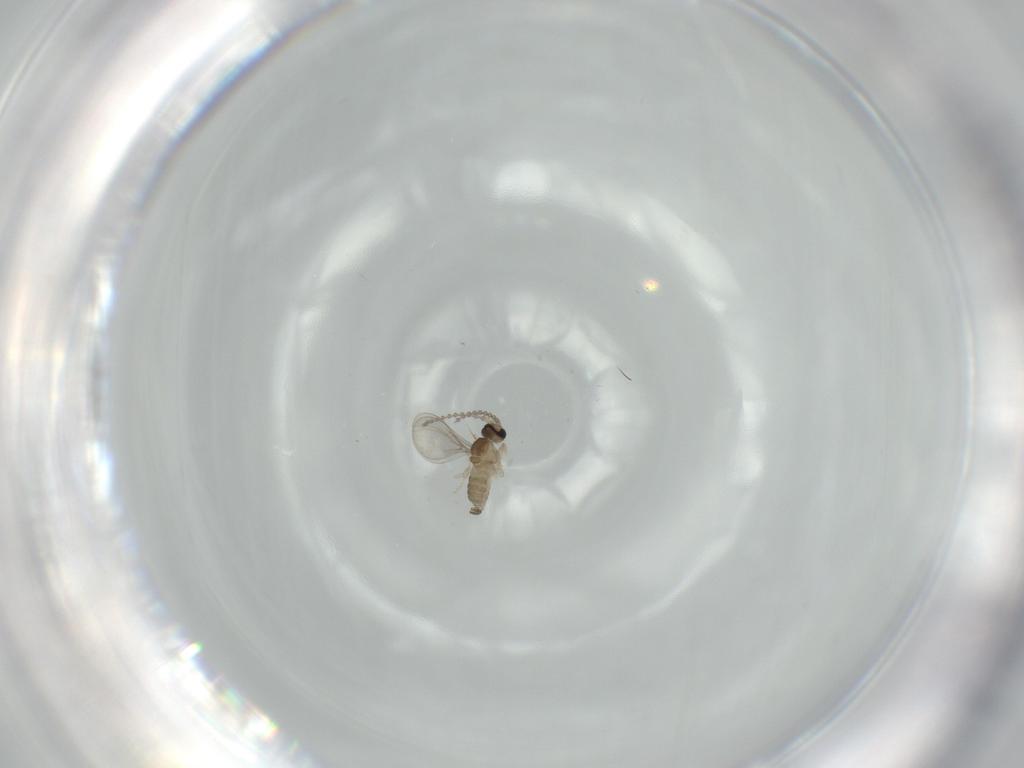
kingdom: Animalia
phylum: Arthropoda
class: Insecta
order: Diptera
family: Cecidomyiidae
